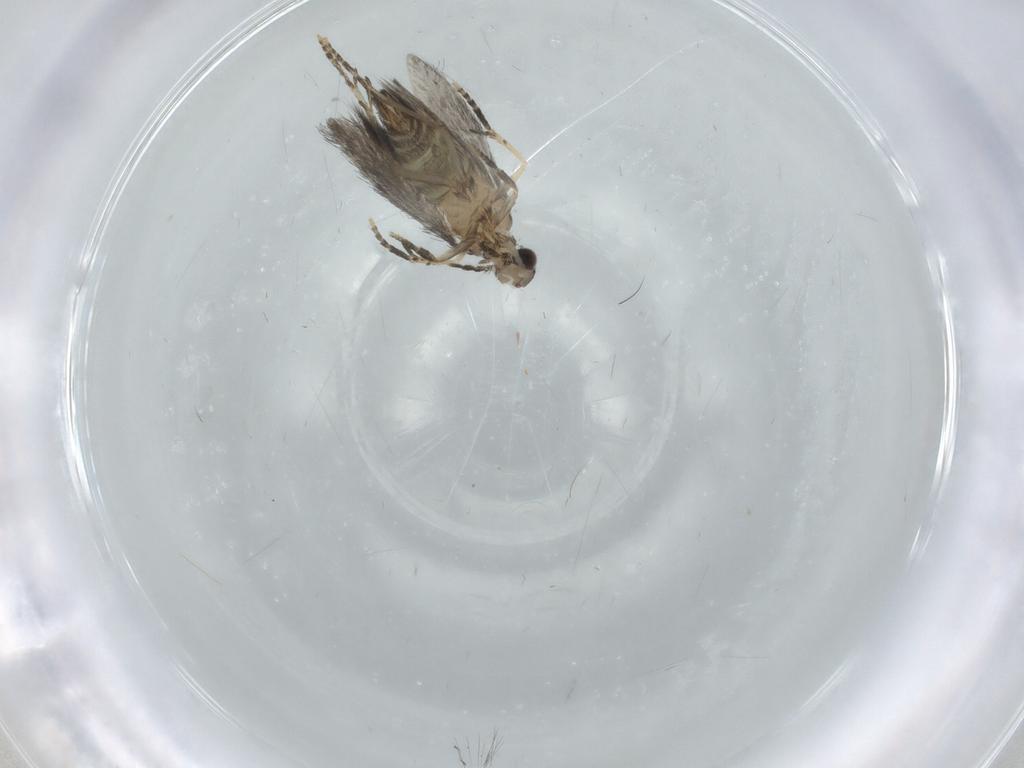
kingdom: Animalia
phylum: Arthropoda
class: Insecta
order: Trichoptera
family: Hydroptilidae
